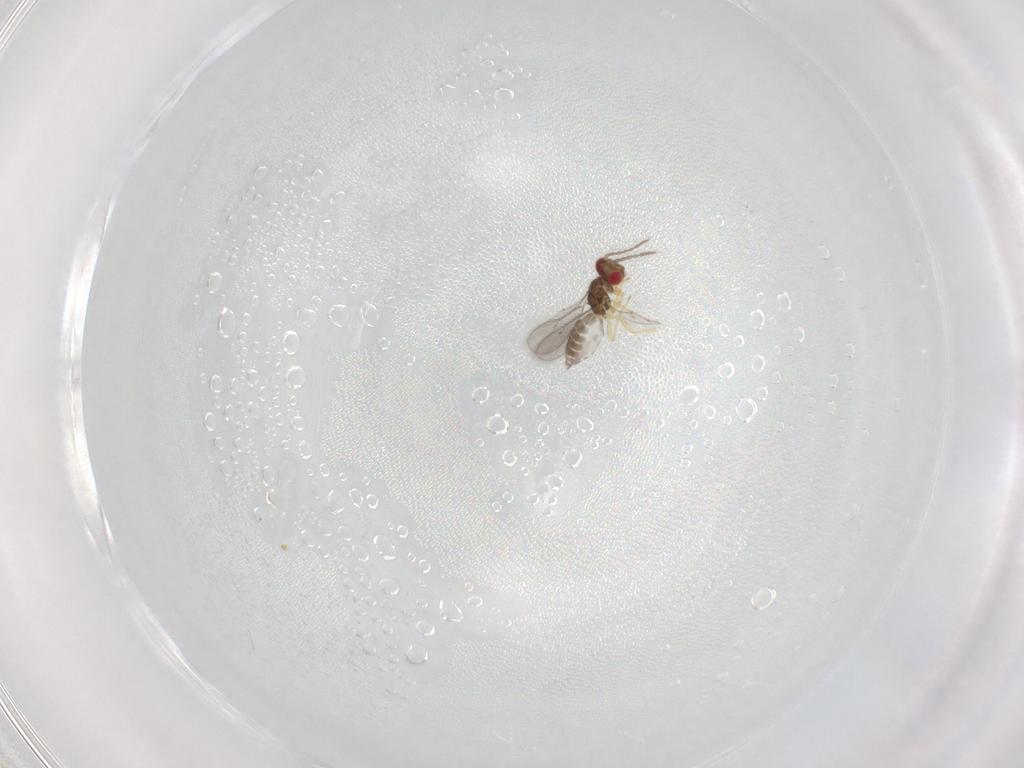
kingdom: Animalia
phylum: Arthropoda
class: Insecta
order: Hymenoptera
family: Eulophidae
